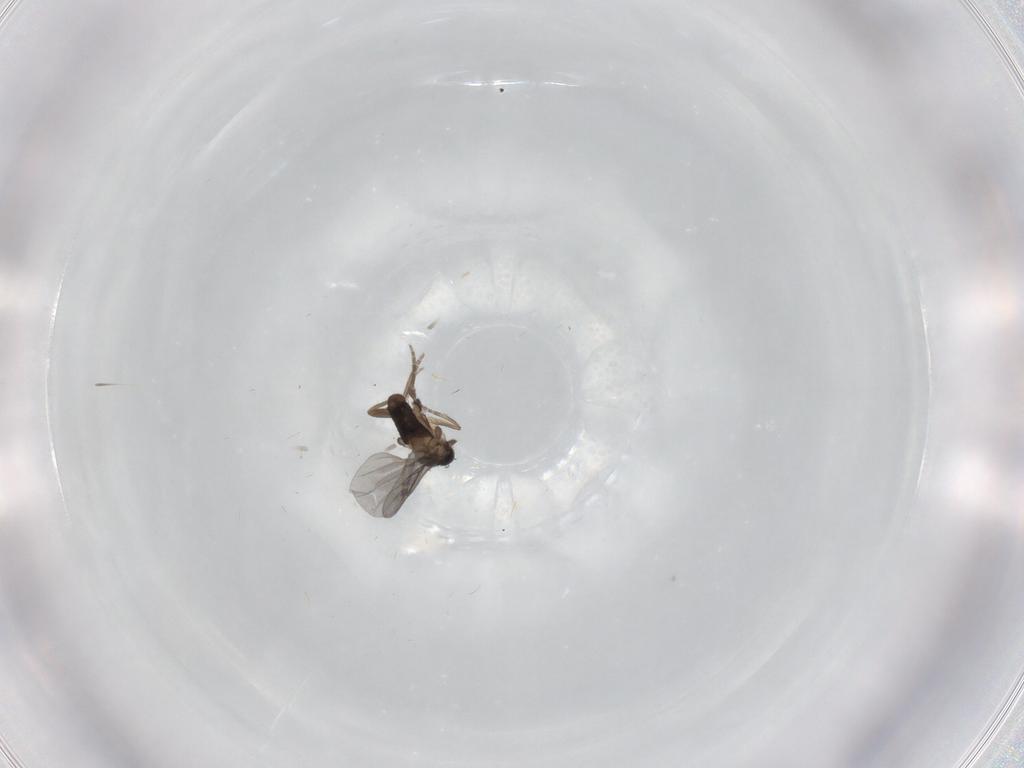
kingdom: Animalia
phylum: Arthropoda
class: Insecta
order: Diptera
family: Cecidomyiidae
